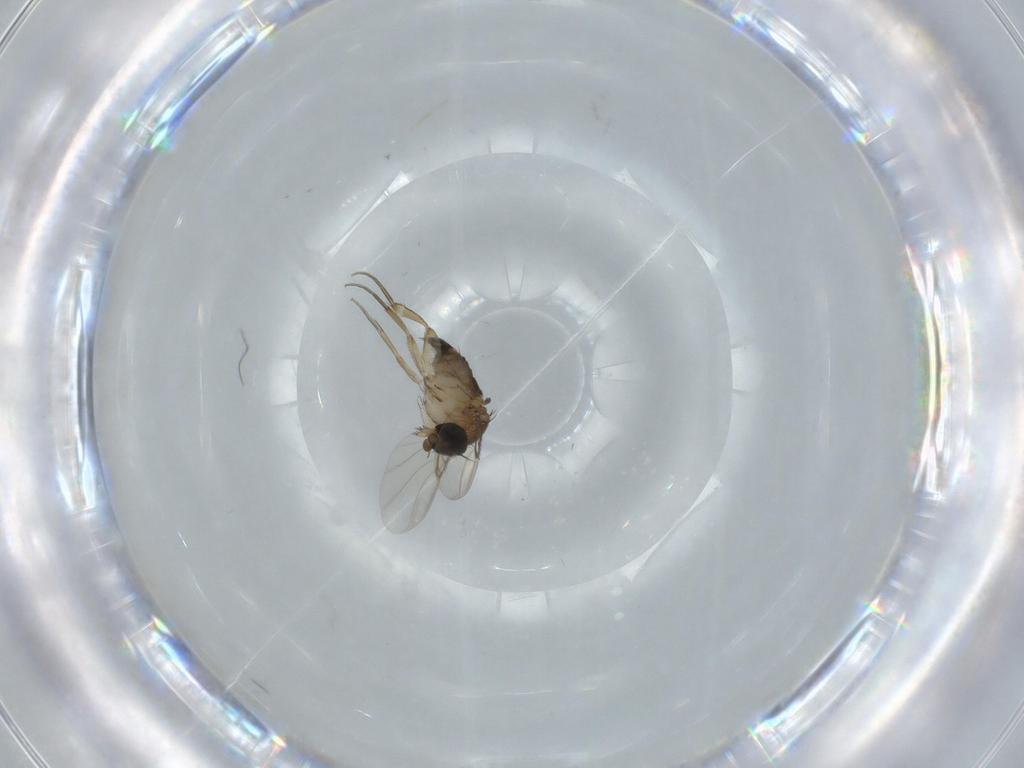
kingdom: Animalia
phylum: Arthropoda
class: Insecta
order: Diptera
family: Phoridae
